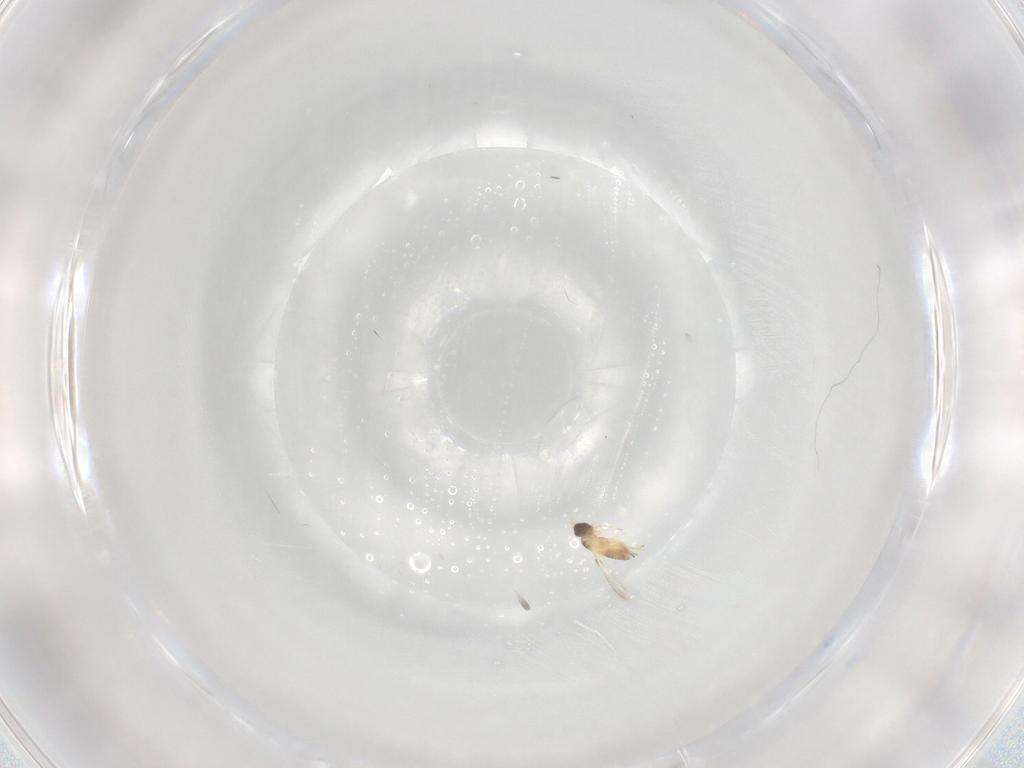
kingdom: Animalia
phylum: Arthropoda
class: Insecta
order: Hymenoptera
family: Mymaridae
